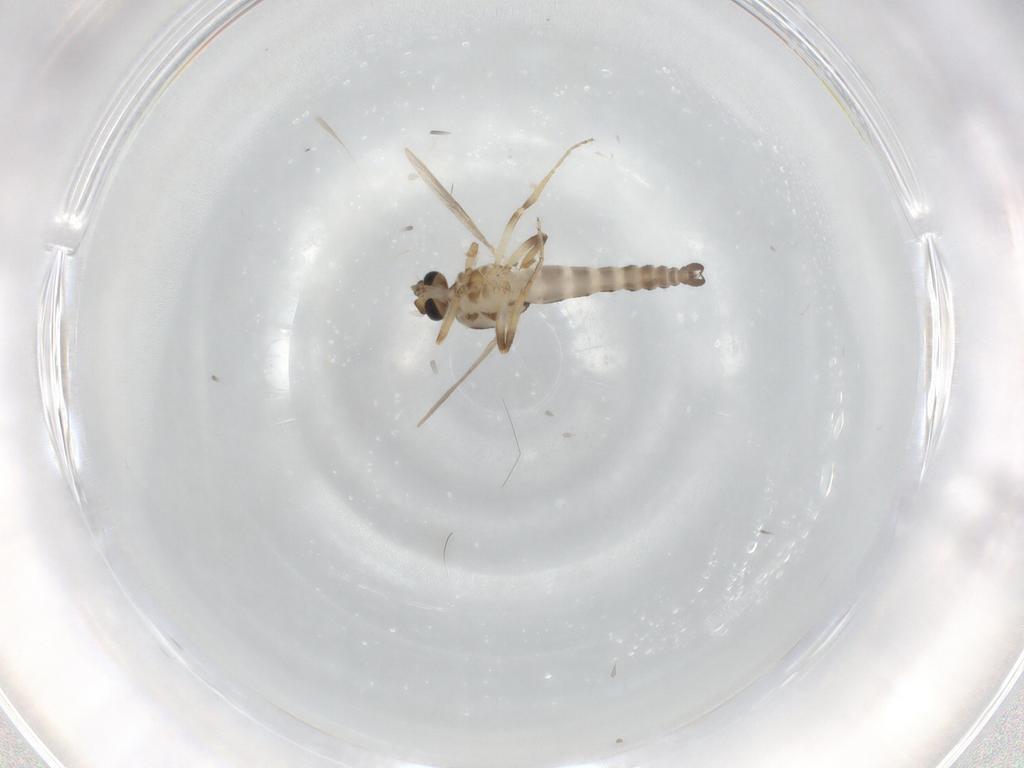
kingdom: Animalia
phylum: Arthropoda
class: Insecta
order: Diptera
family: Ceratopogonidae
